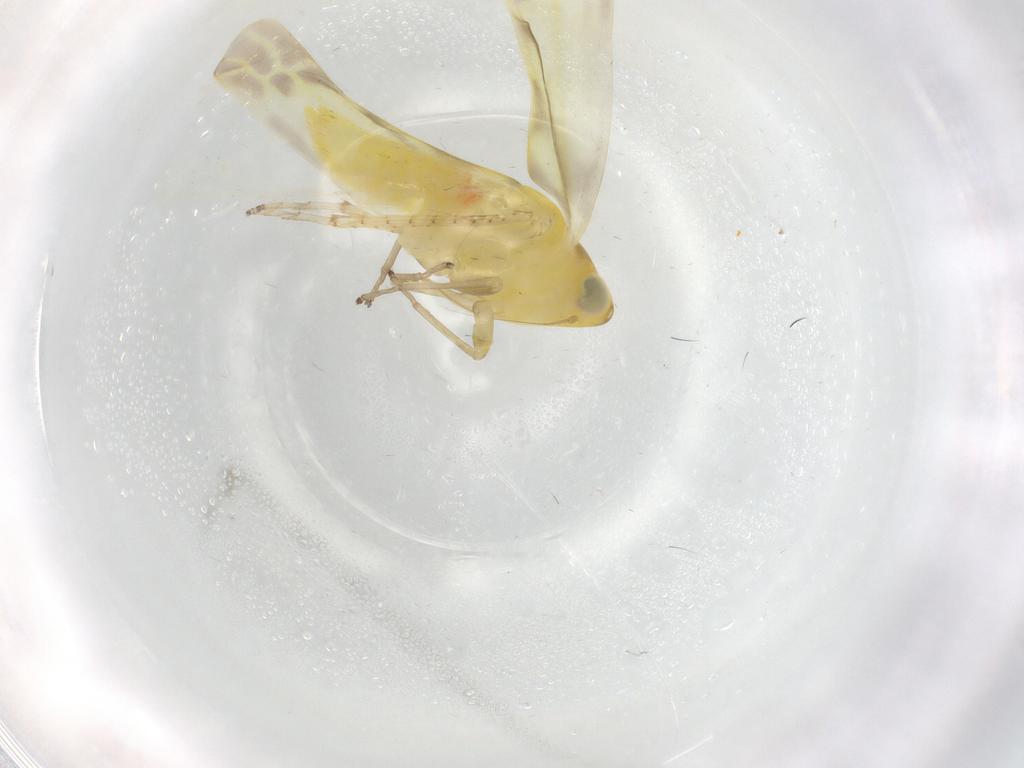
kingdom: Animalia
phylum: Arthropoda
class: Insecta
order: Hemiptera
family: Cicadellidae
